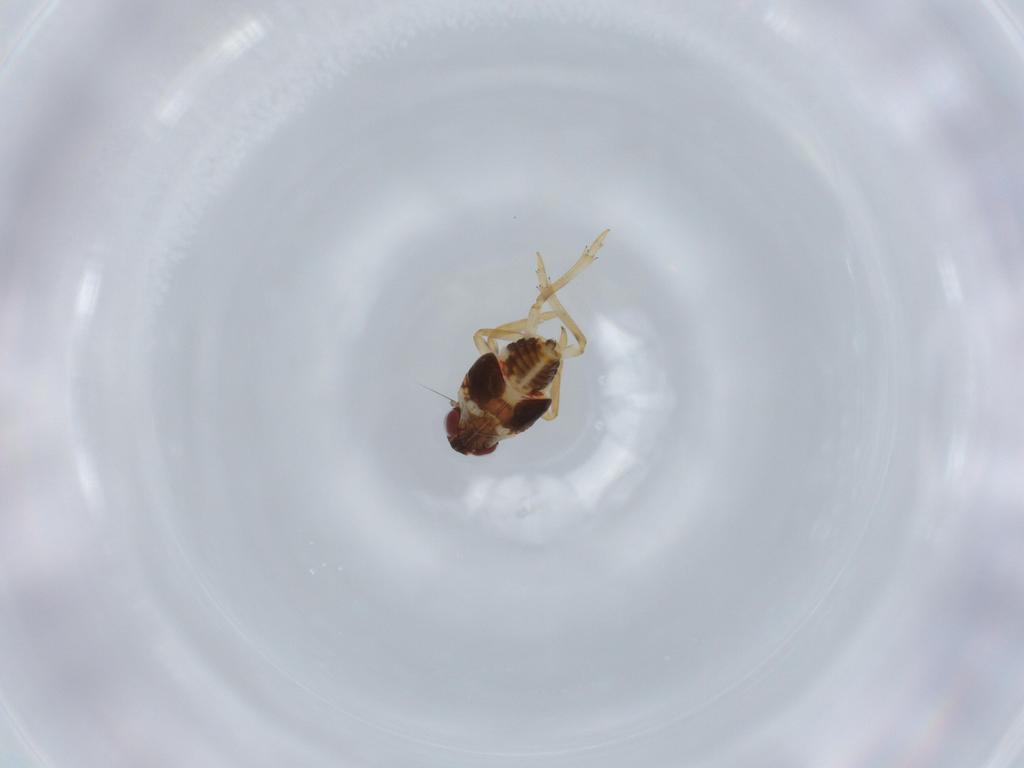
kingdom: Animalia
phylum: Arthropoda
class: Insecta
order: Hemiptera
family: Issidae
